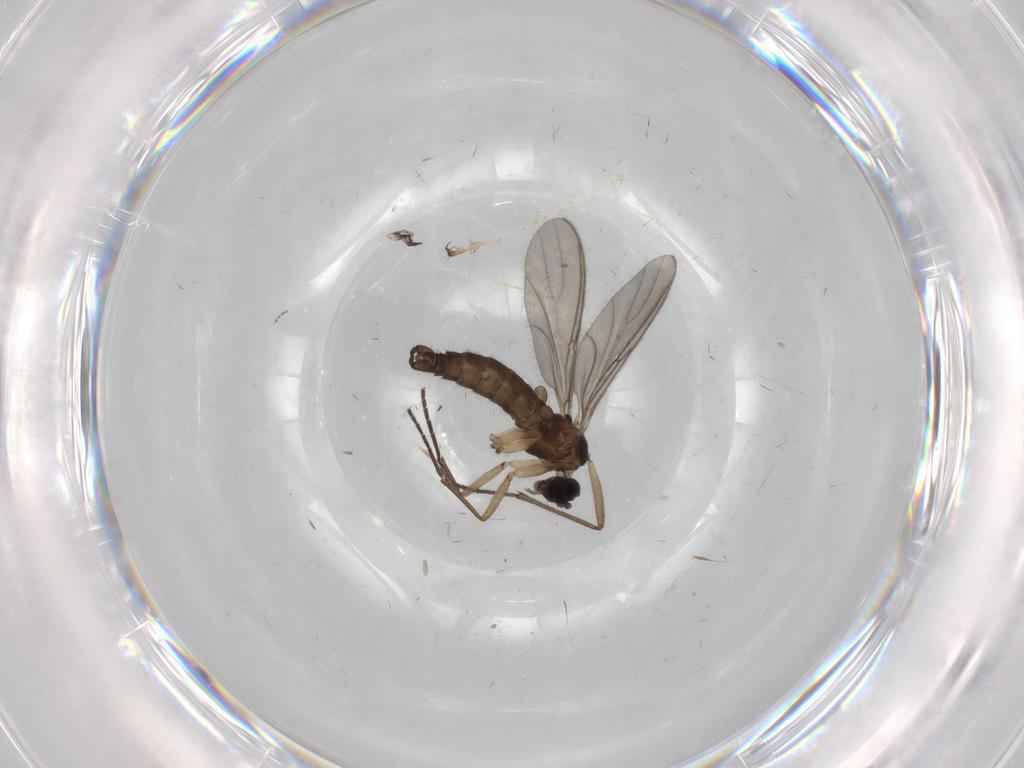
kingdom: Animalia
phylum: Arthropoda
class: Insecta
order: Diptera
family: Sciaridae
